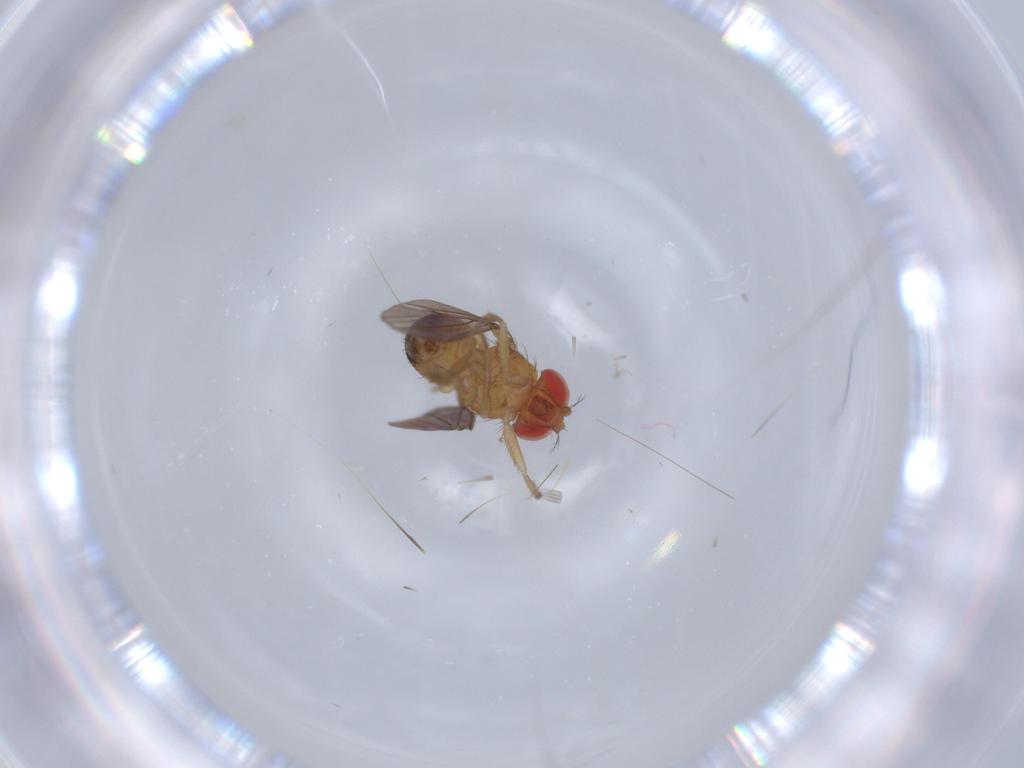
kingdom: Animalia
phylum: Arthropoda
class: Insecta
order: Diptera
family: Drosophilidae
